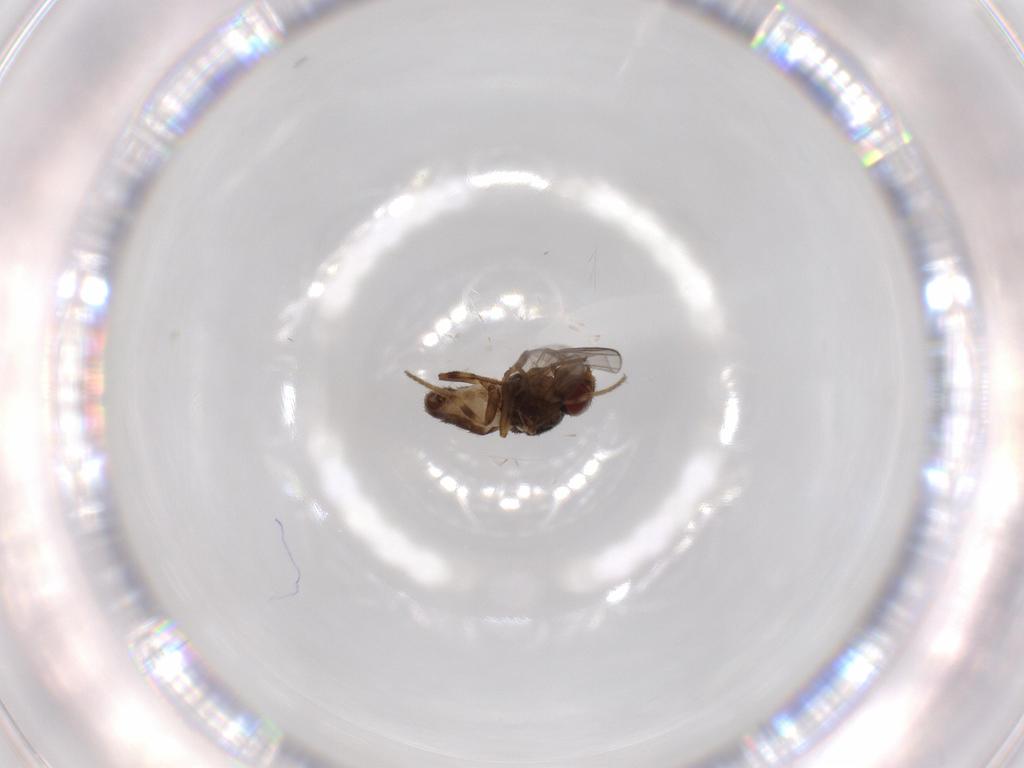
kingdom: Animalia
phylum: Arthropoda
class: Insecta
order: Diptera
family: Chloropidae
